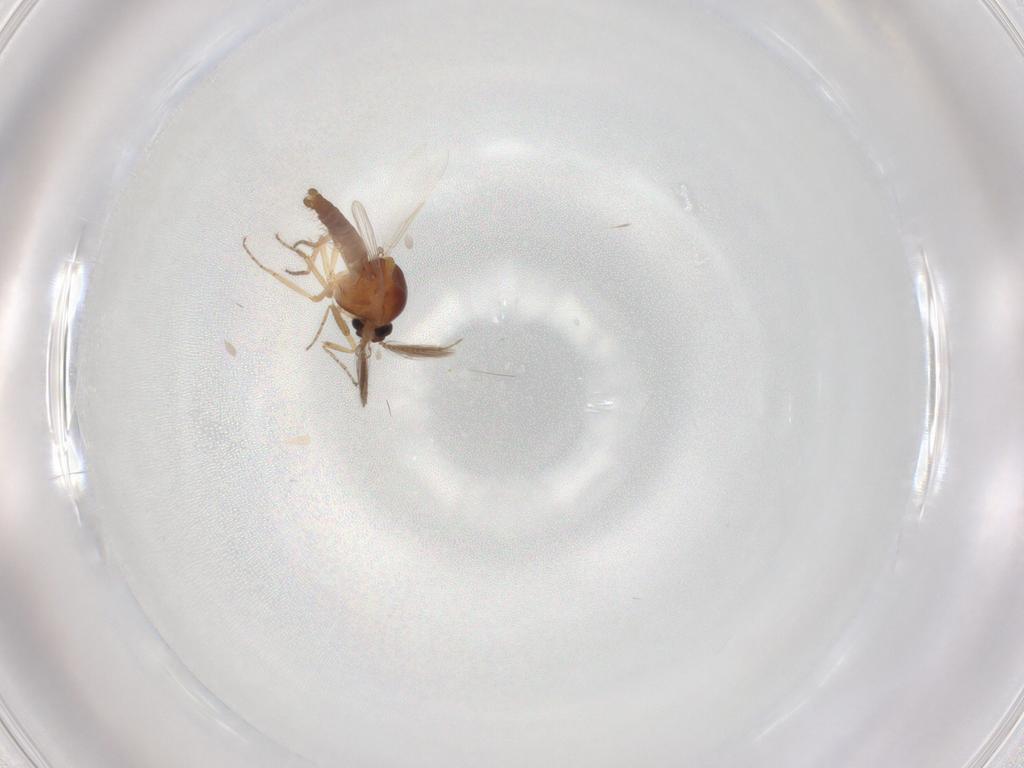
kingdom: Animalia
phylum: Arthropoda
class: Insecta
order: Diptera
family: Ceratopogonidae
